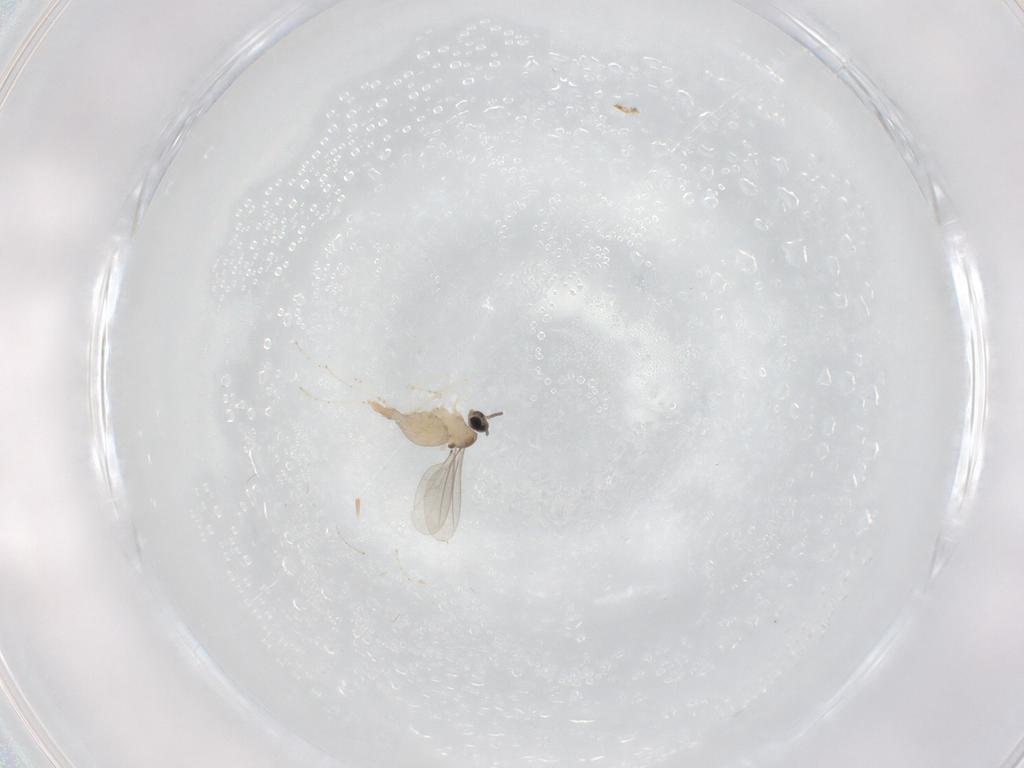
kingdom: Animalia
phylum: Arthropoda
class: Insecta
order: Diptera
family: Cecidomyiidae
